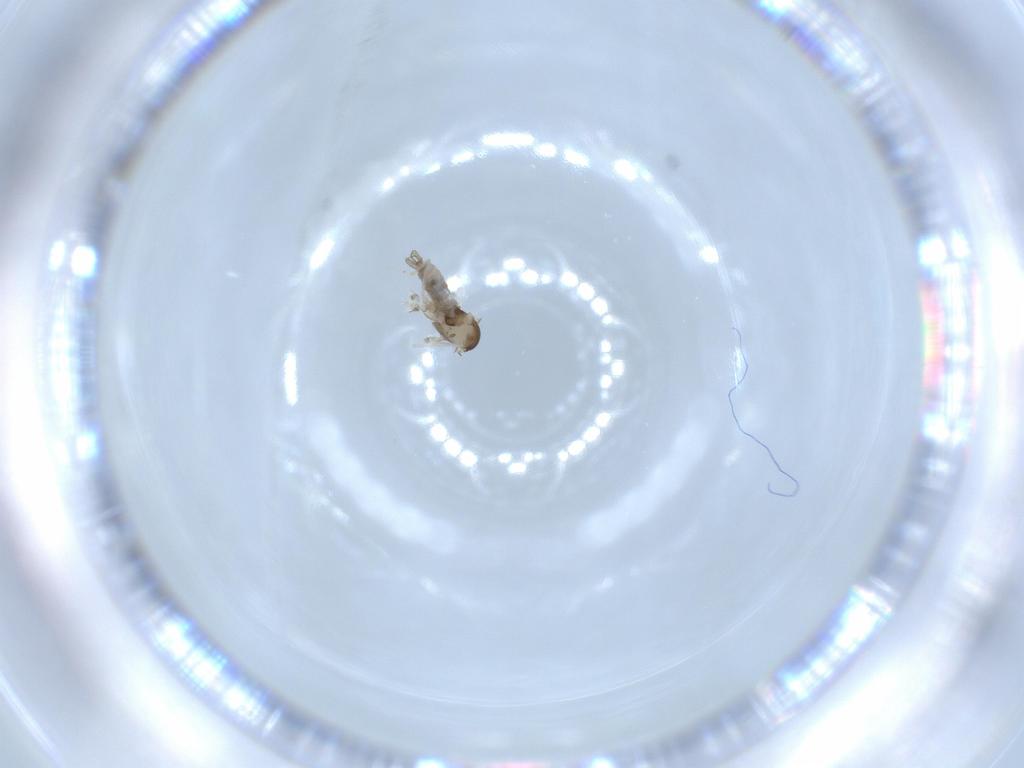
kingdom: Animalia
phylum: Arthropoda
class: Insecta
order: Diptera
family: Cecidomyiidae
